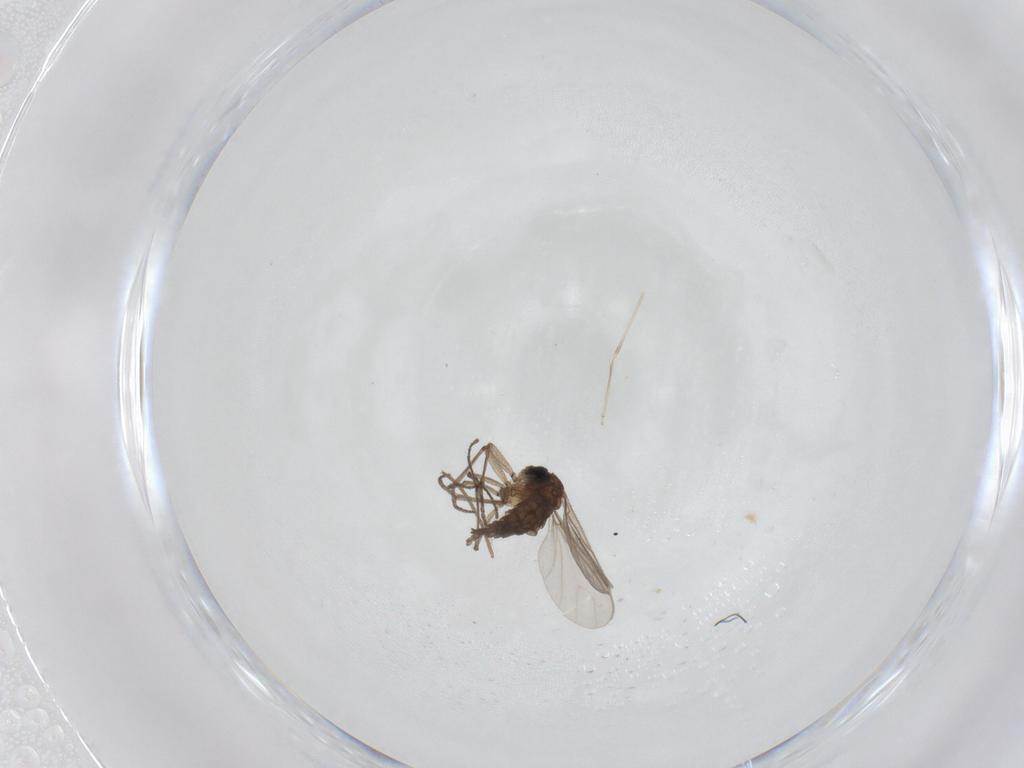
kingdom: Animalia
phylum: Arthropoda
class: Insecta
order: Diptera
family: Sciaridae
